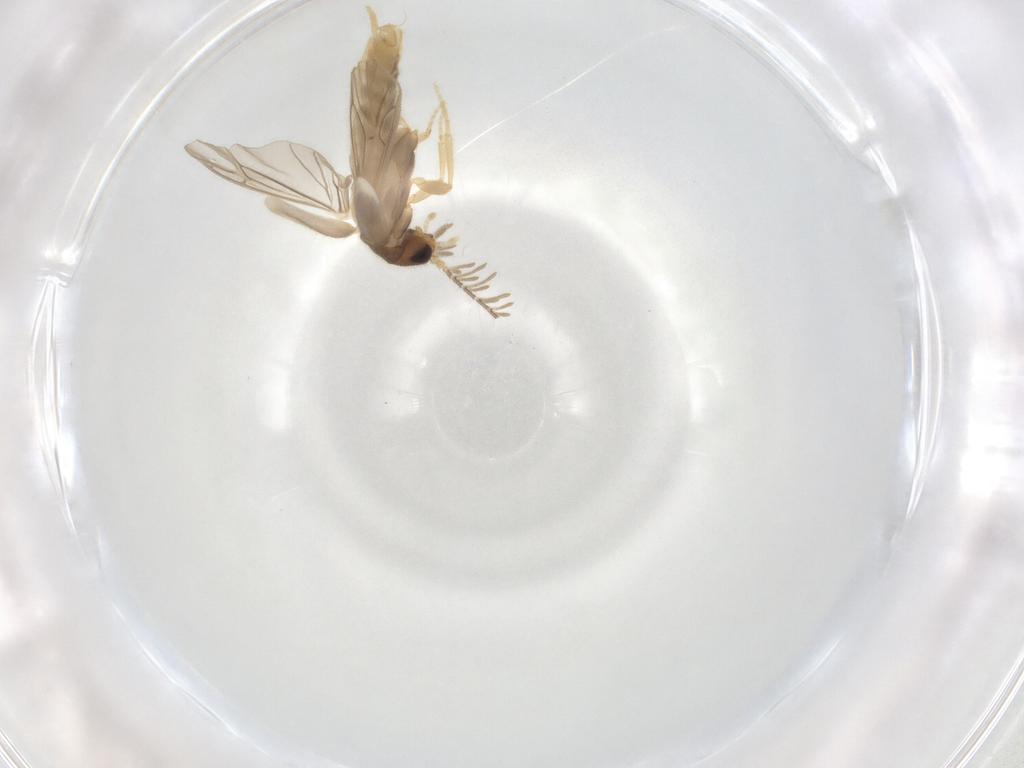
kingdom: Animalia
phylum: Arthropoda
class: Insecta
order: Coleoptera
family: Phengodidae
